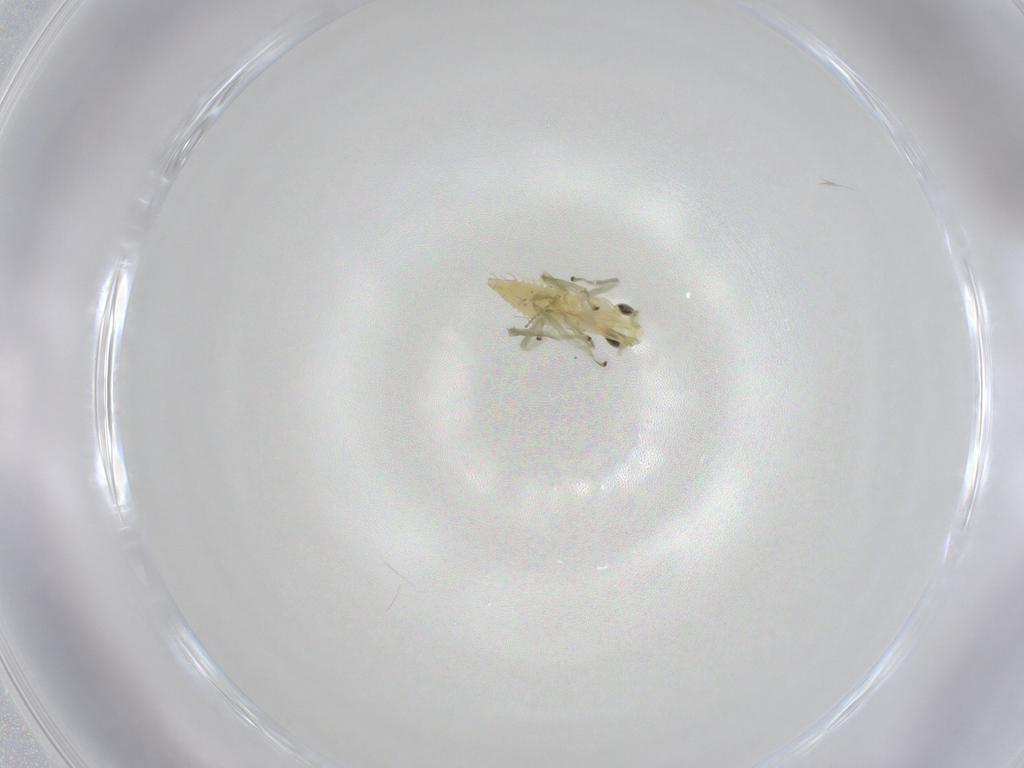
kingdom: Animalia
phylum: Arthropoda
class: Insecta
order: Hemiptera
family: Cicadellidae
